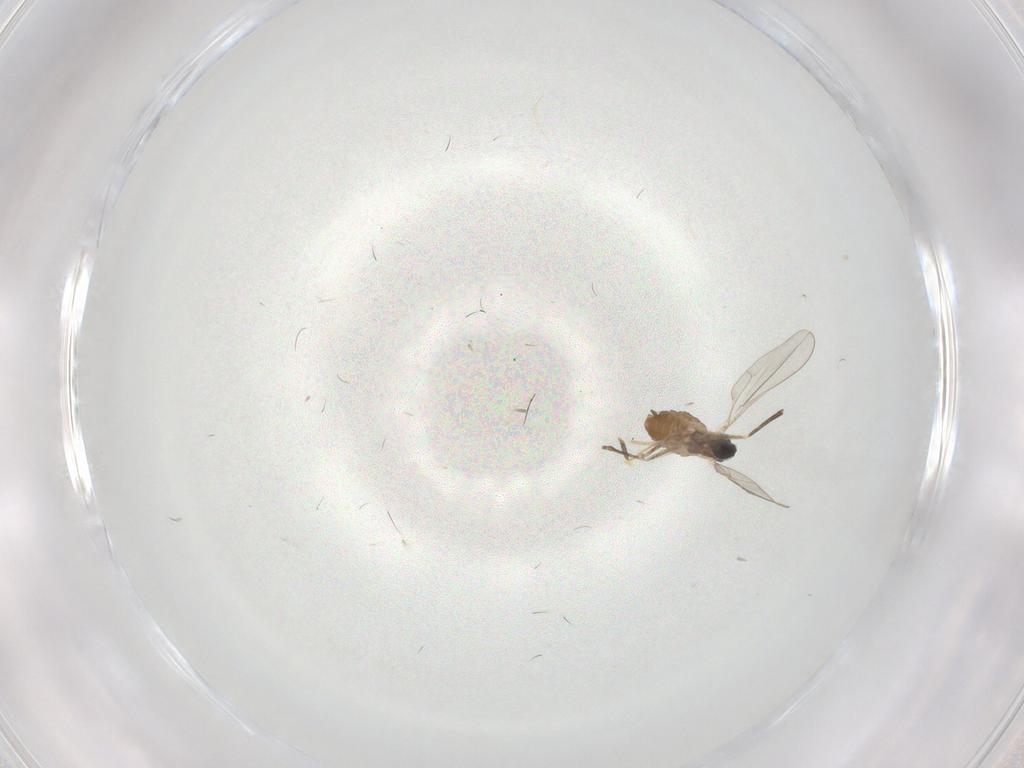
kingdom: Animalia
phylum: Arthropoda
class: Insecta
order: Diptera
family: Cecidomyiidae
